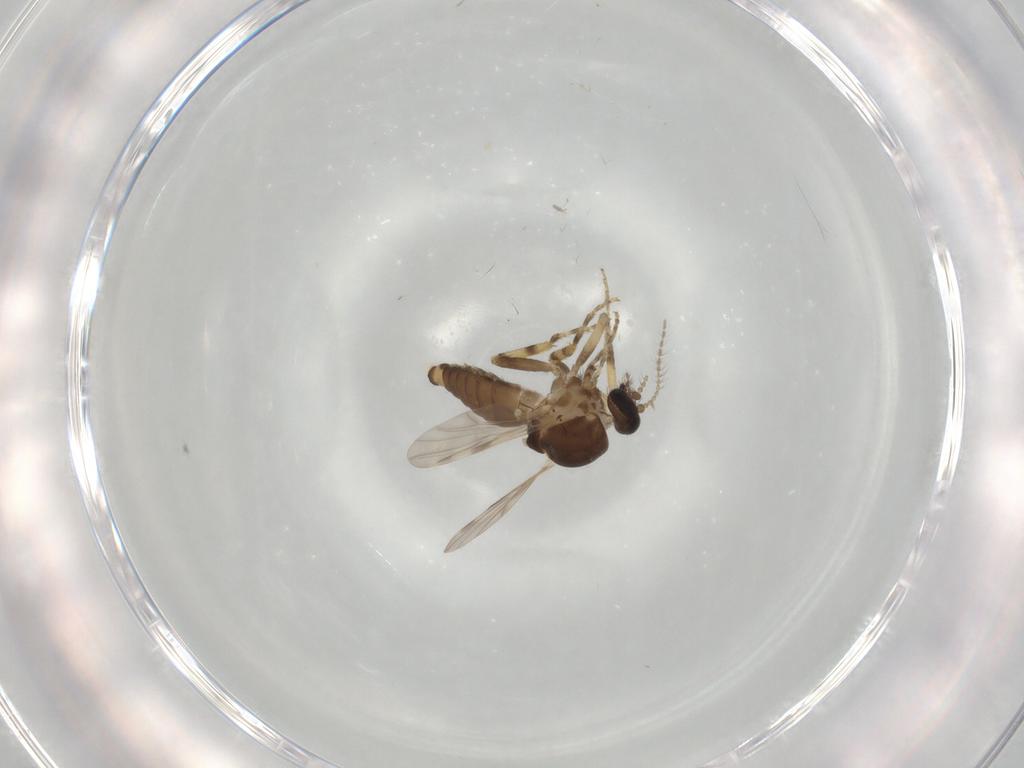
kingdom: Animalia
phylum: Arthropoda
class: Insecta
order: Diptera
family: Ceratopogonidae
